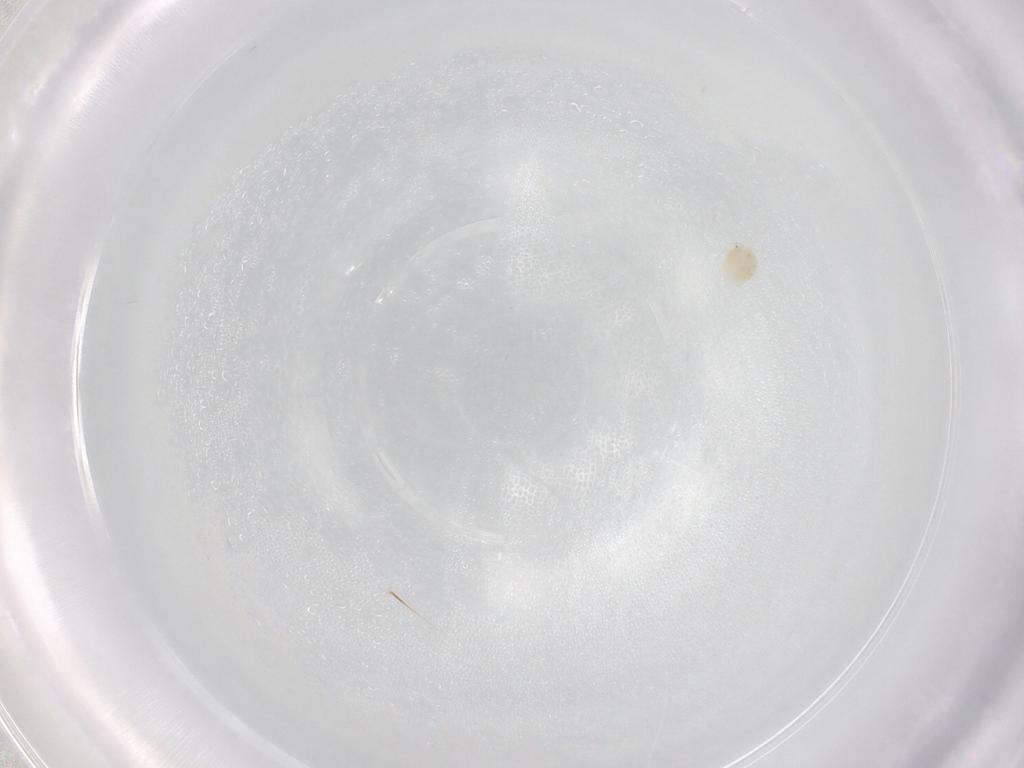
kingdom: Animalia
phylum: Arthropoda
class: Arachnida
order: Trombidiformes
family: Limnesiidae
